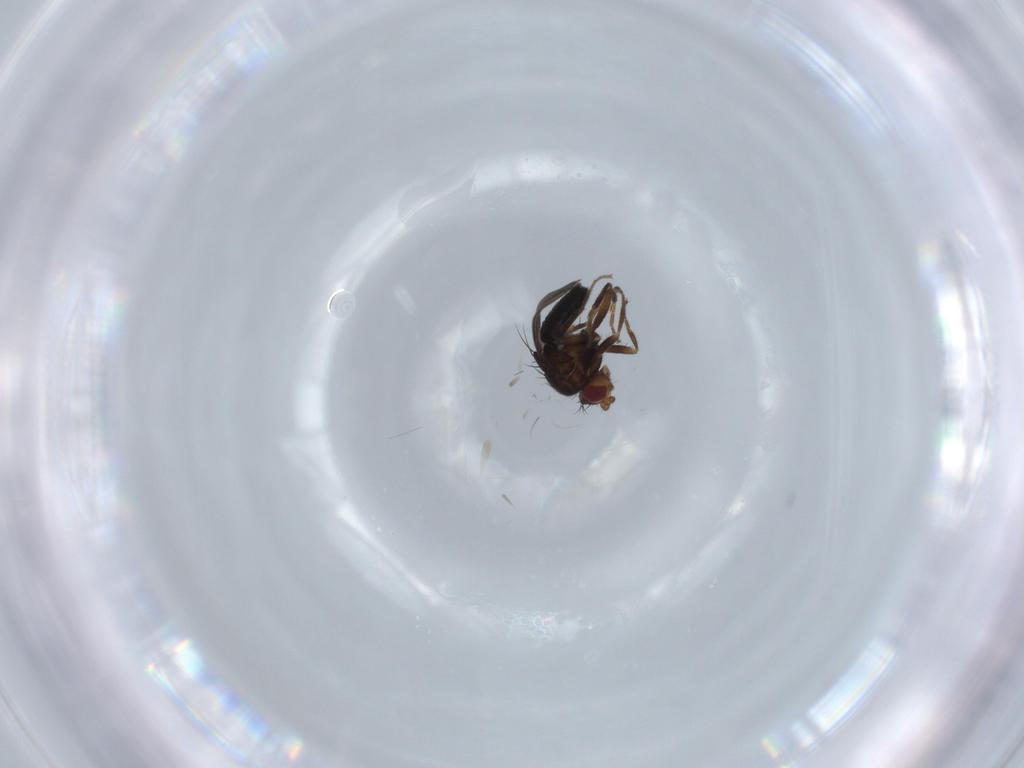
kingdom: Animalia
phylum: Arthropoda
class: Insecta
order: Diptera
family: Sphaeroceridae
